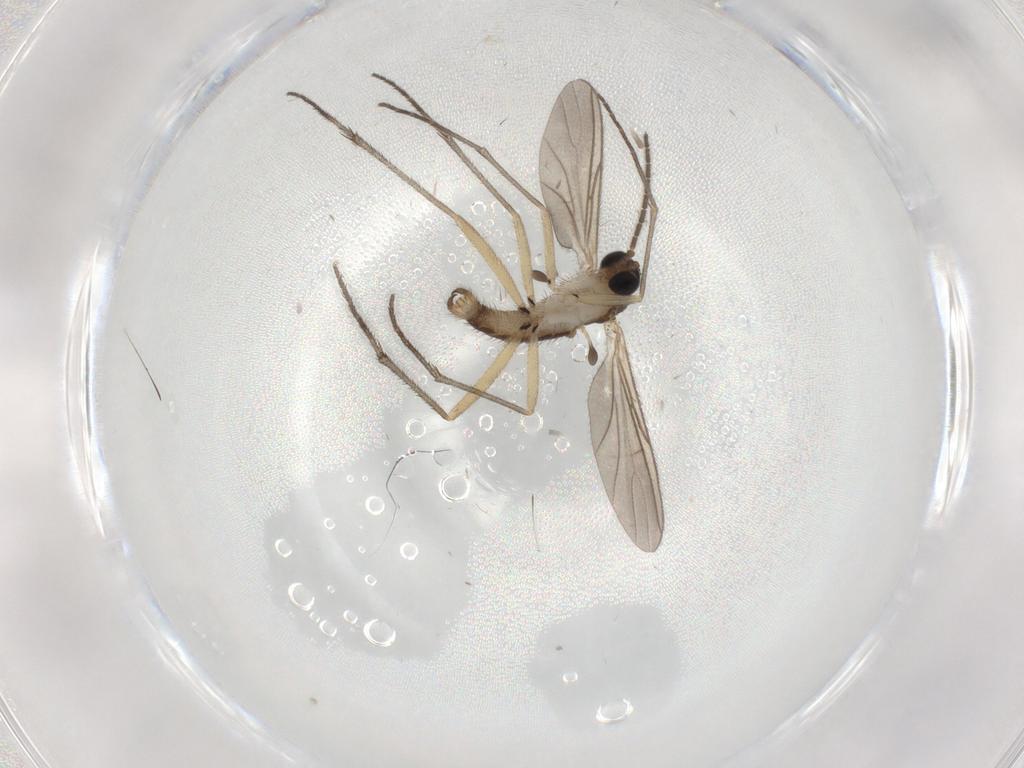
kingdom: Animalia
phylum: Arthropoda
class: Insecta
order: Diptera
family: Sciaridae
